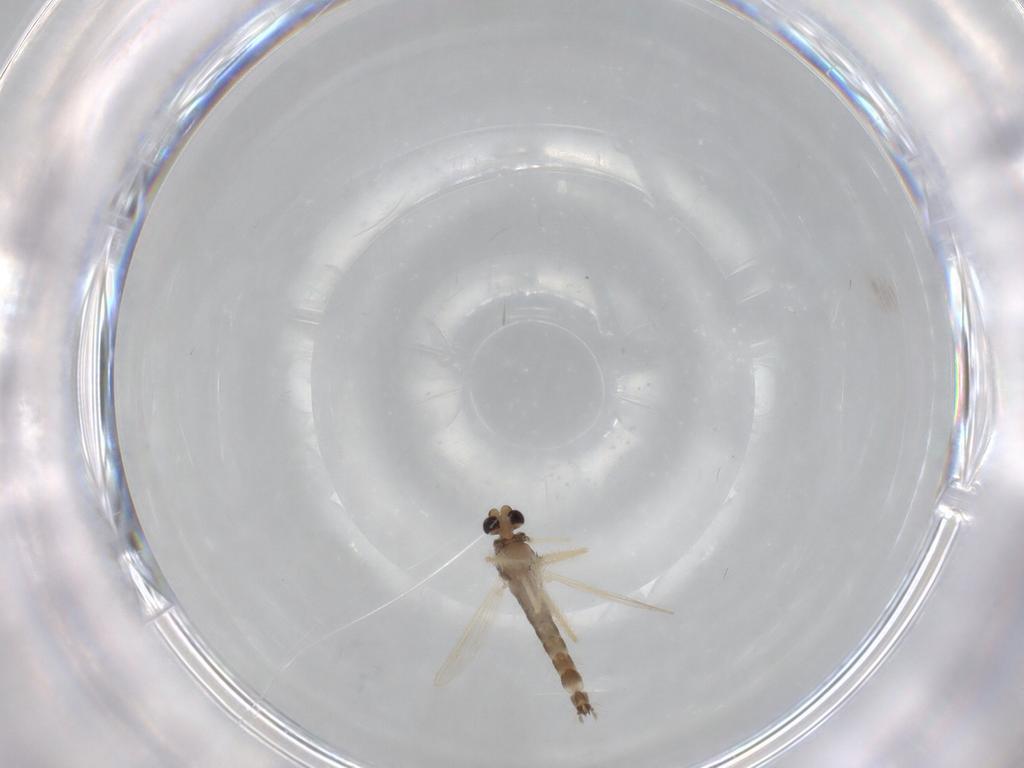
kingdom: Animalia
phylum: Arthropoda
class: Insecta
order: Diptera
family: Chironomidae
